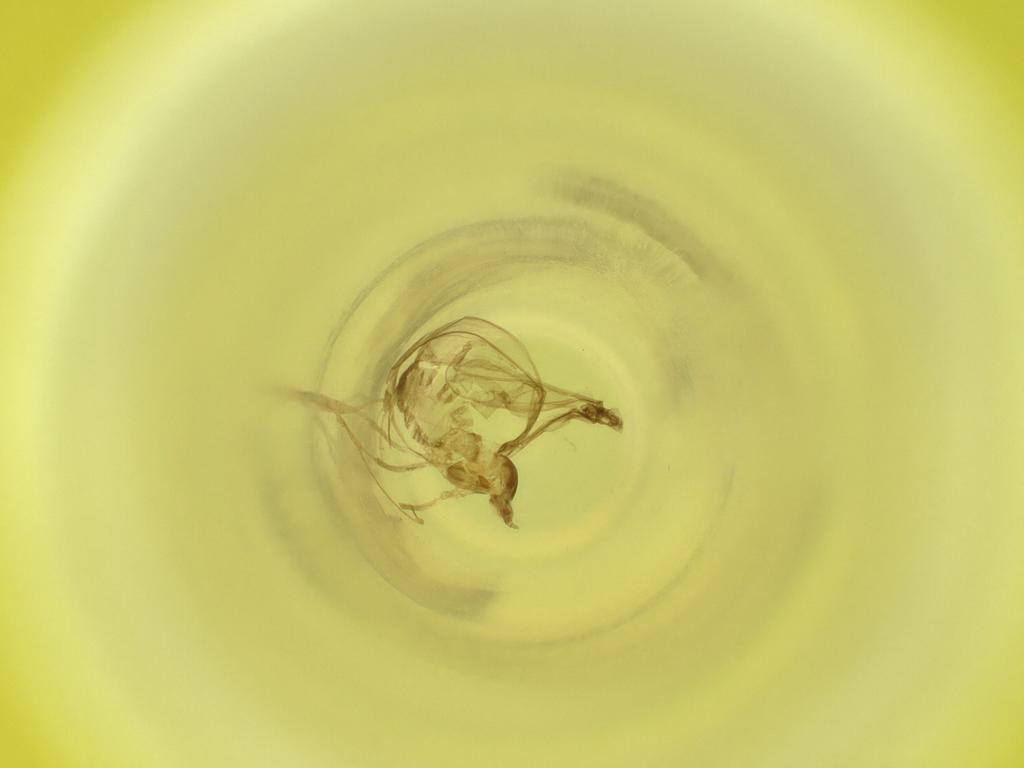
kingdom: Animalia
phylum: Arthropoda
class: Insecta
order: Diptera
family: Cecidomyiidae
